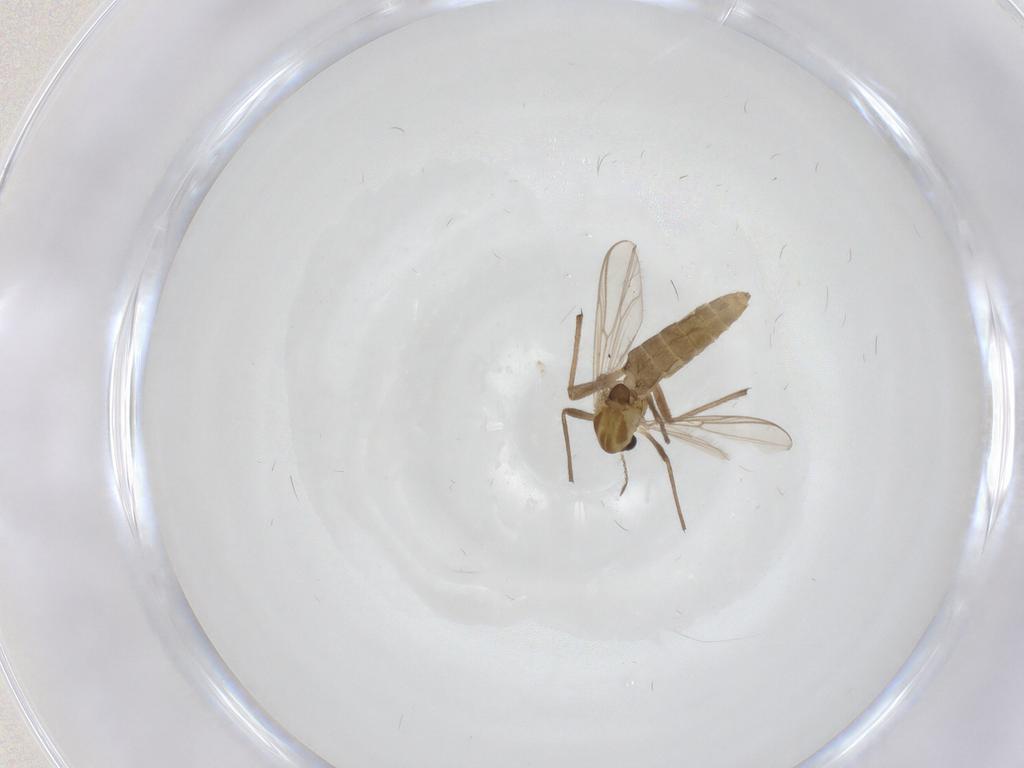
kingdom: Animalia
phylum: Arthropoda
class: Insecta
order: Diptera
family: Chironomidae
